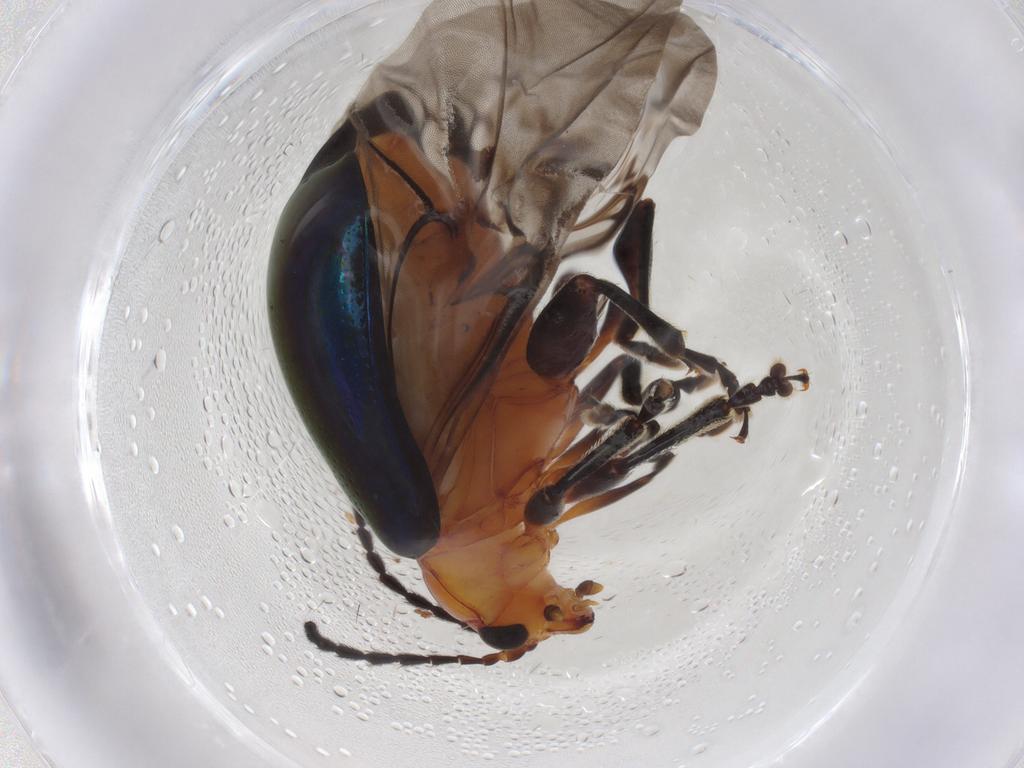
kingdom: Animalia
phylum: Arthropoda
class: Insecta
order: Coleoptera
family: Chrysomelidae
